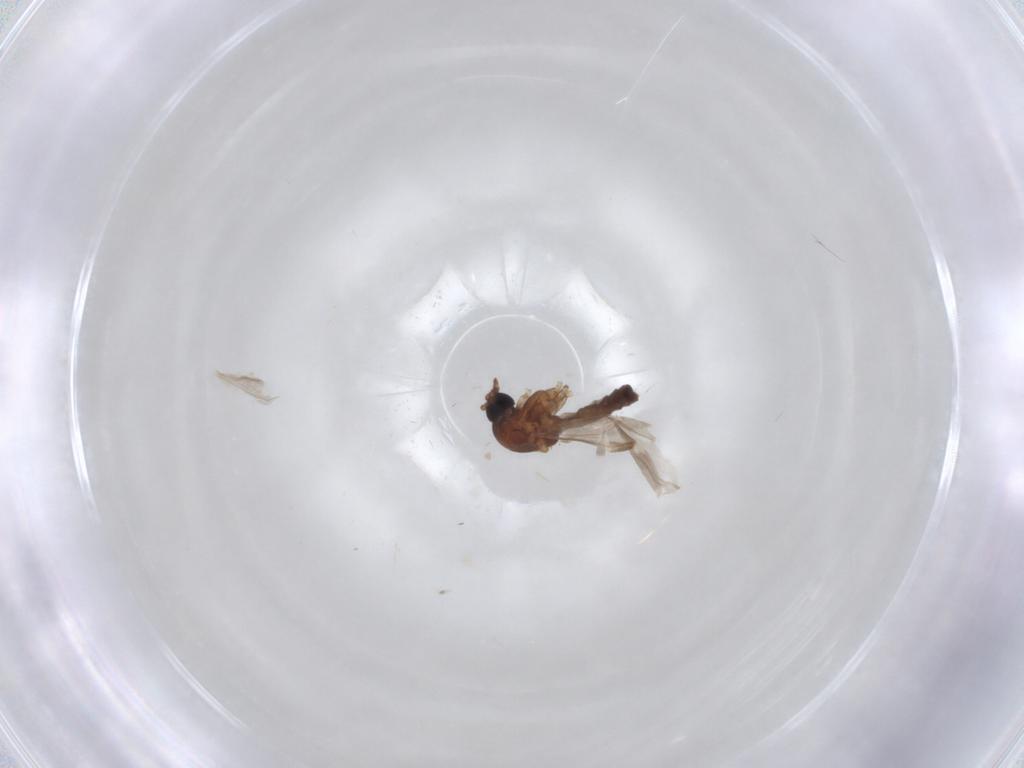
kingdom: Animalia
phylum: Arthropoda
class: Insecta
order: Diptera
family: Ceratopogonidae
